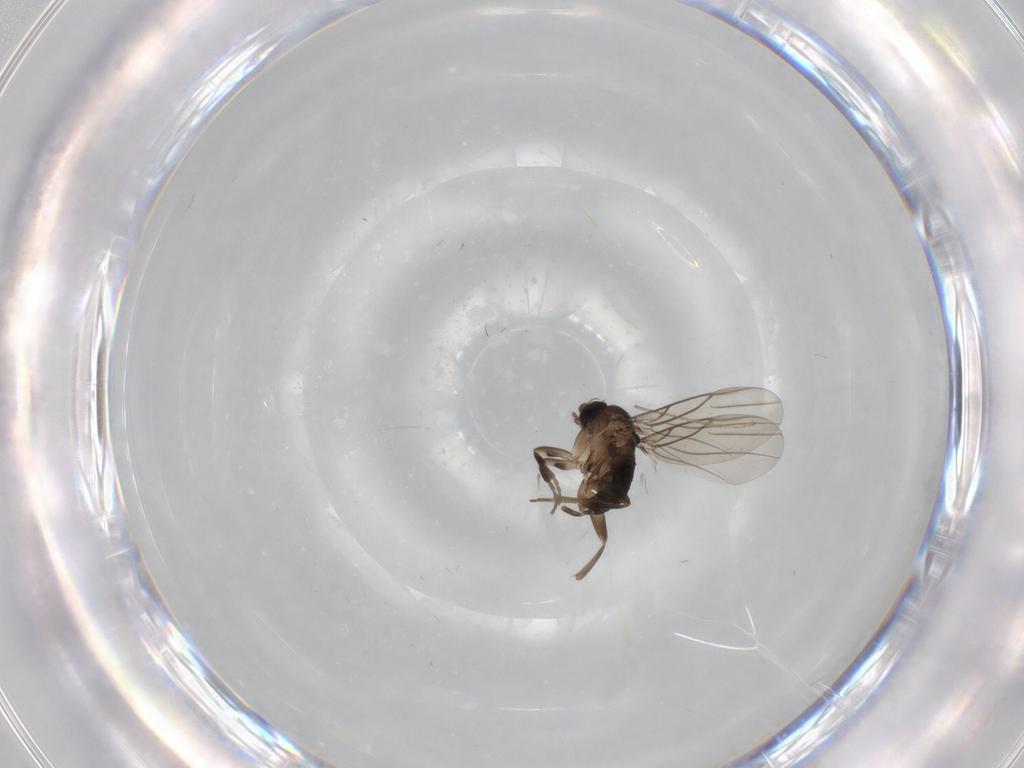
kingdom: Animalia
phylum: Arthropoda
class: Insecta
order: Diptera
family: Phoridae
